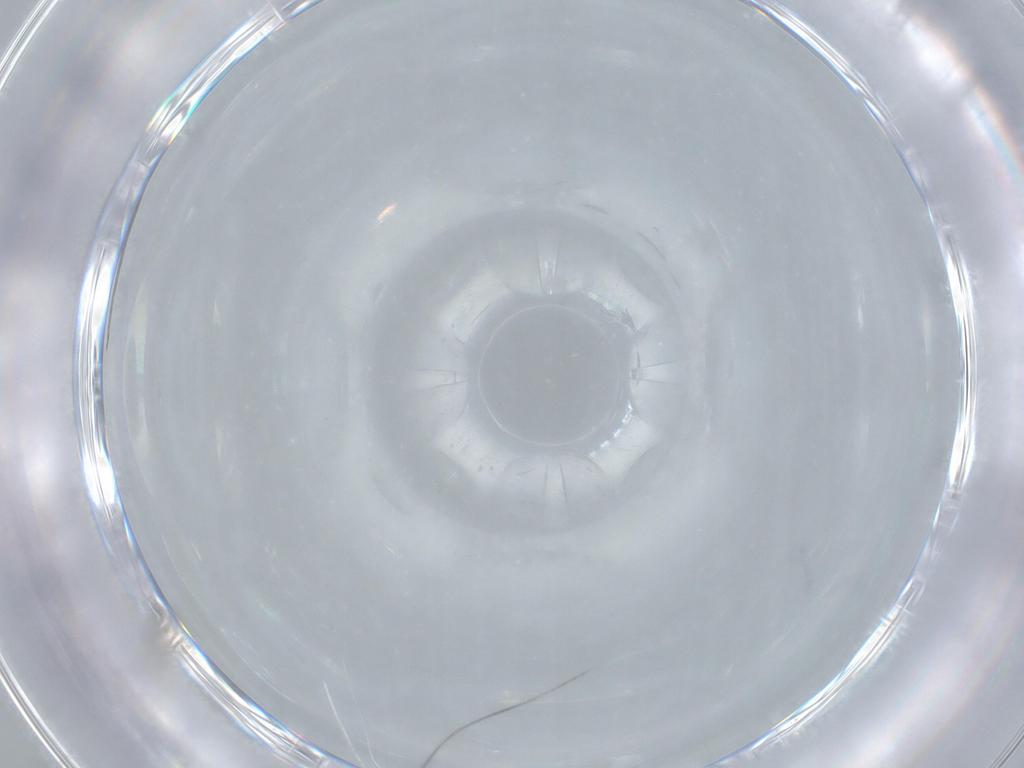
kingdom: Animalia
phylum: Arthropoda
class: Insecta
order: Diptera
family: Cecidomyiidae
